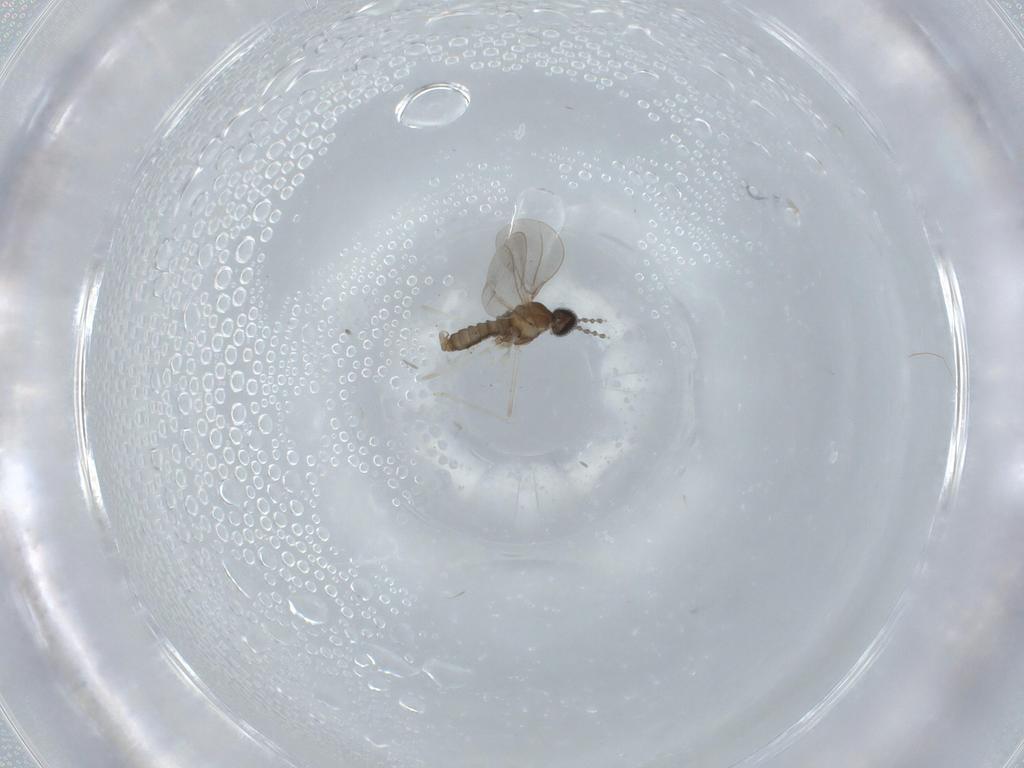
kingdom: Animalia
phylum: Arthropoda
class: Insecta
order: Diptera
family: Cecidomyiidae
